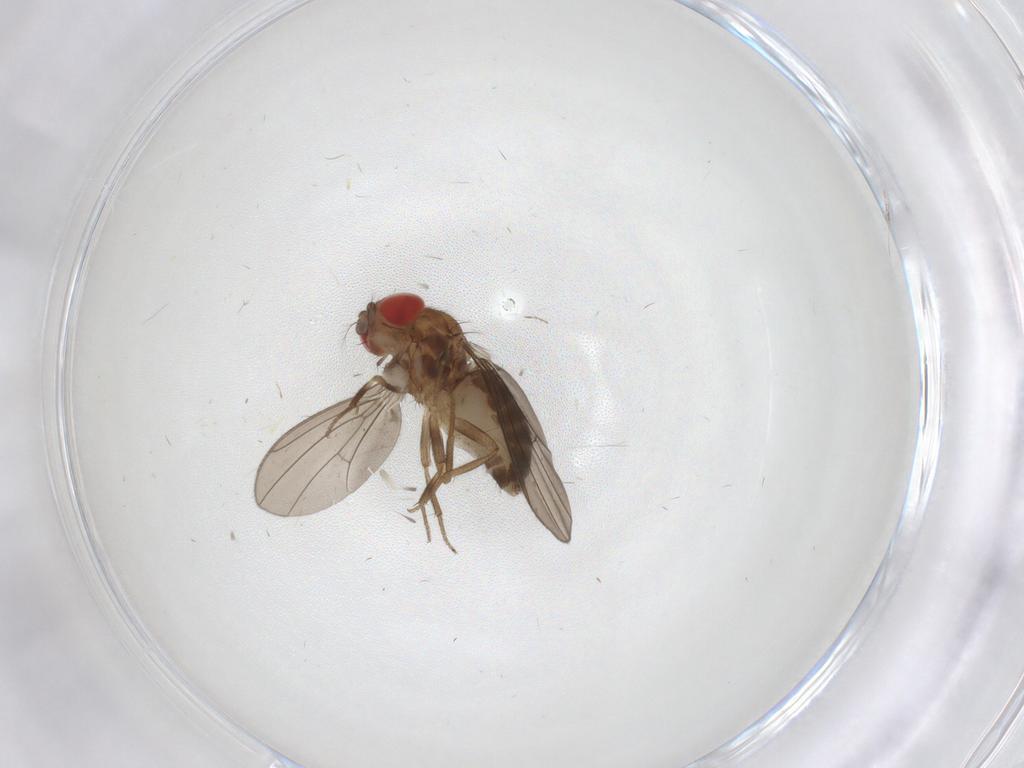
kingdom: Animalia
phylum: Arthropoda
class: Insecta
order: Diptera
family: Drosophilidae
